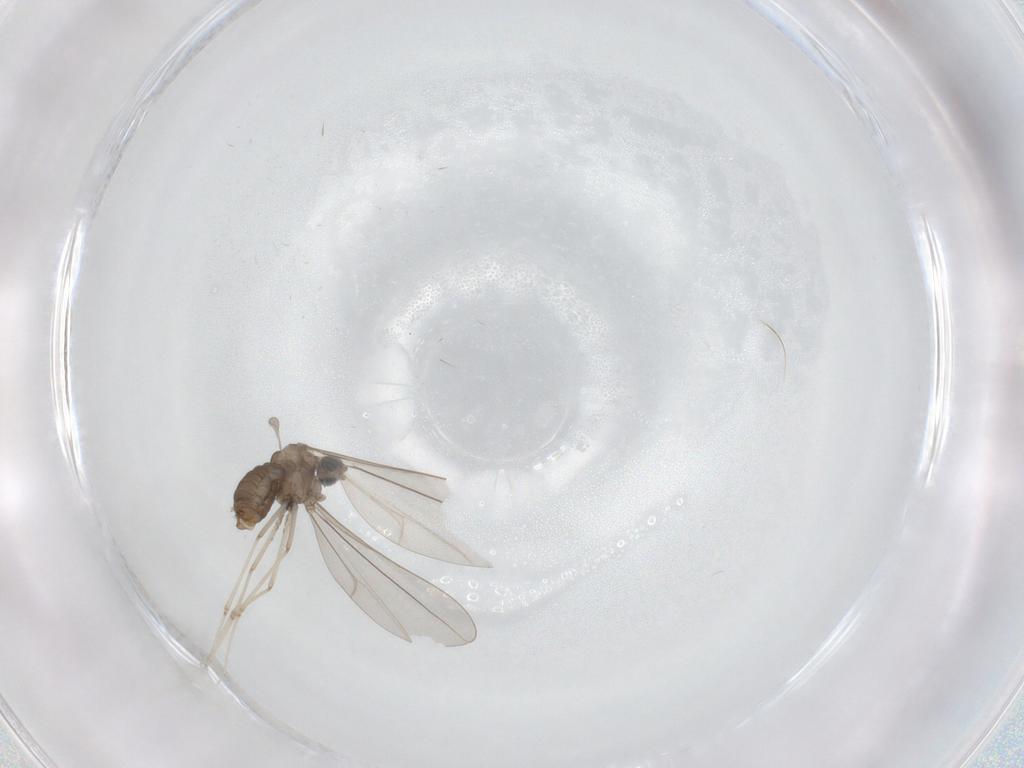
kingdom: Animalia
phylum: Arthropoda
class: Insecta
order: Diptera
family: Cecidomyiidae
